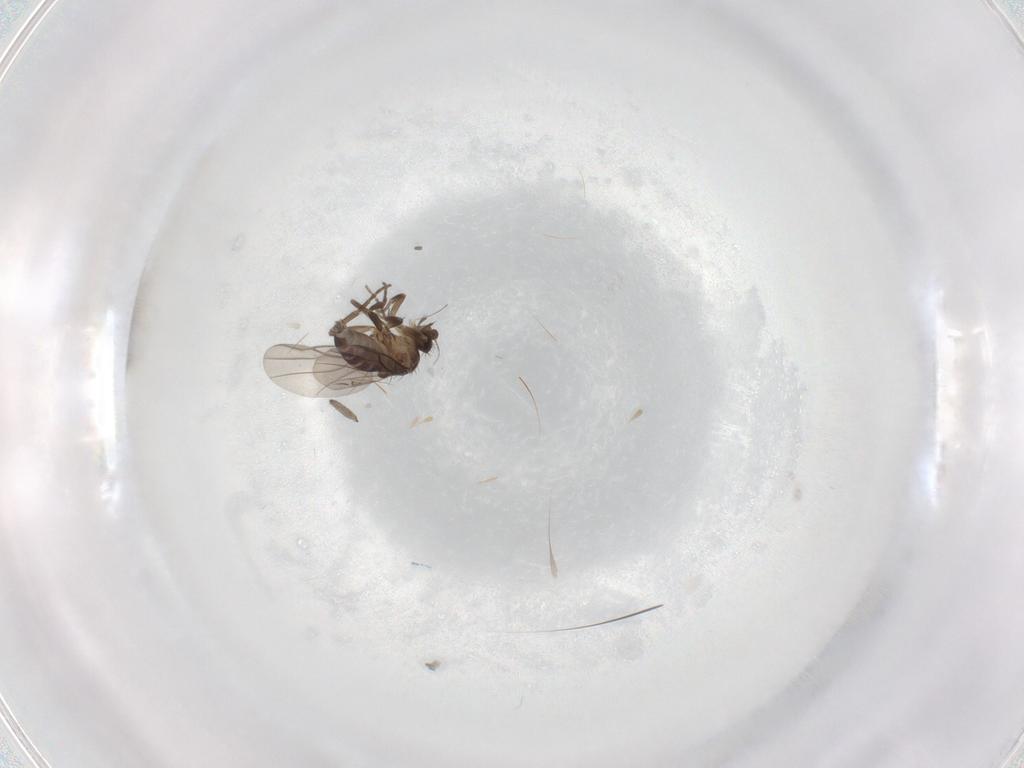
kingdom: Animalia
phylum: Arthropoda
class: Insecta
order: Diptera
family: Phoridae
